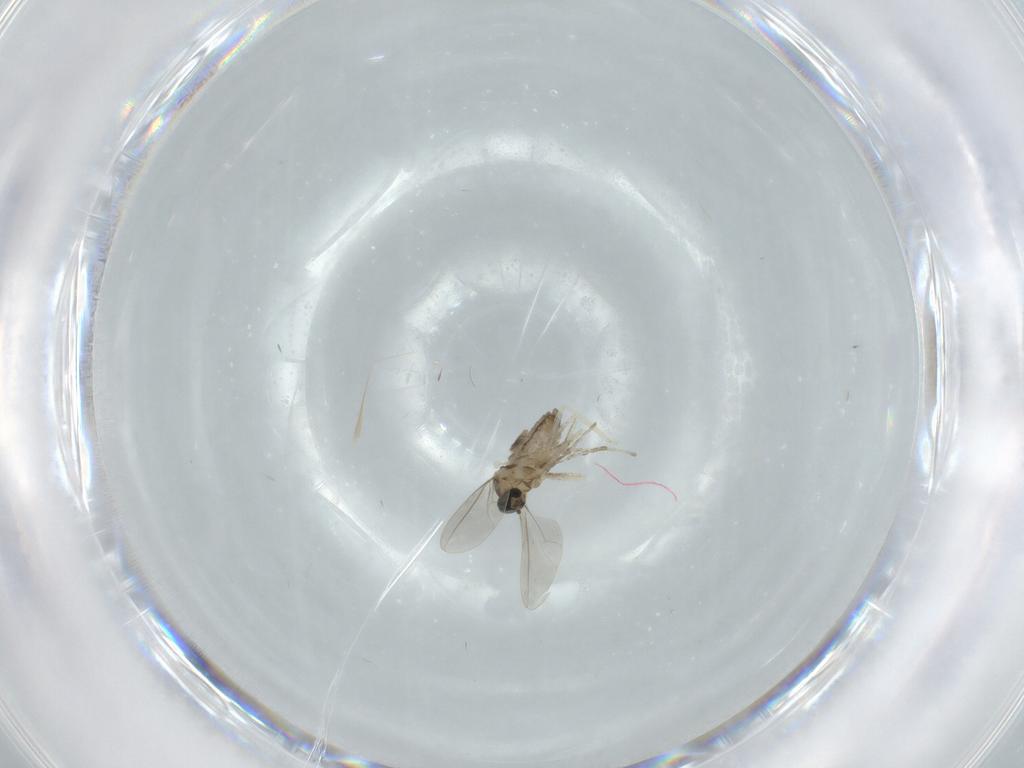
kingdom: Animalia
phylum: Arthropoda
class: Insecta
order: Diptera
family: Cecidomyiidae
